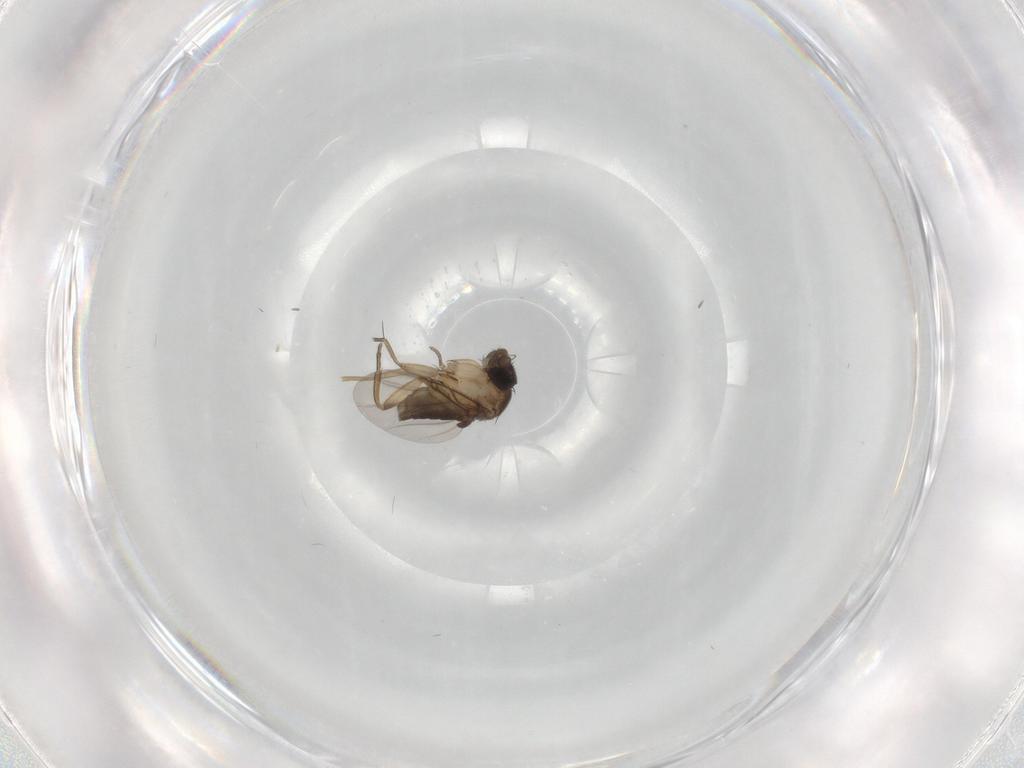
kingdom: Animalia
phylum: Arthropoda
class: Insecta
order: Diptera
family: Phoridae
